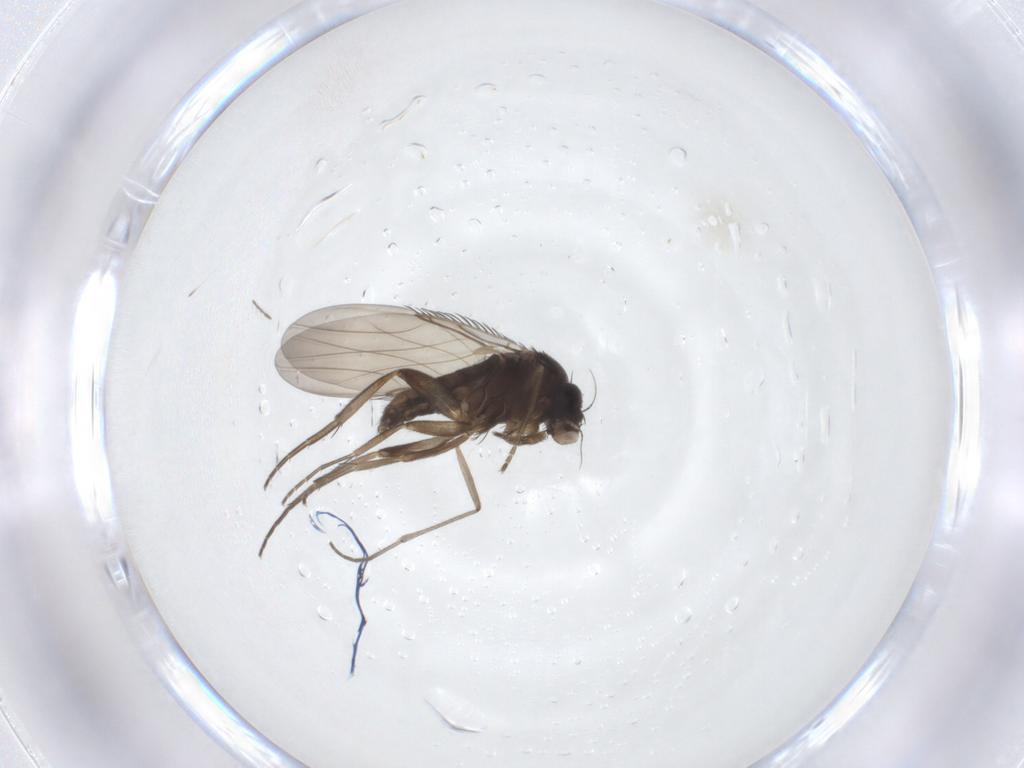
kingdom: Animalia
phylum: Arthropoda
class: Insecta
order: Diptera
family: Phoridae
